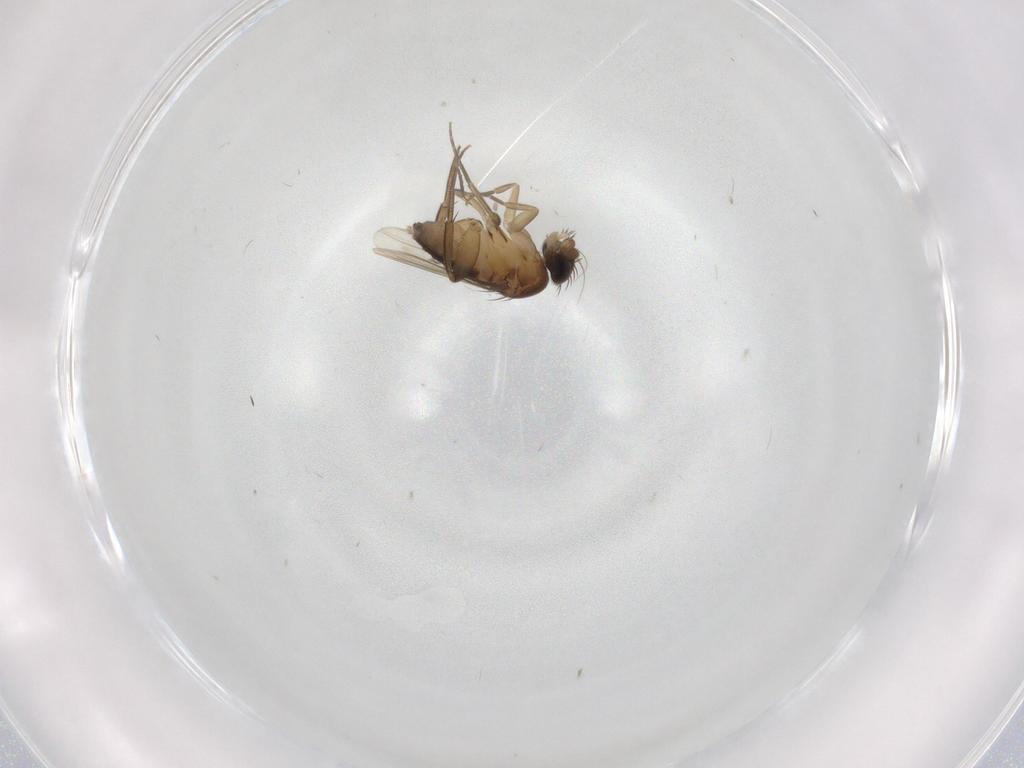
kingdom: Animalia
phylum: Arthropoda
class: Insecta
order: Diptera
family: Phoridae
